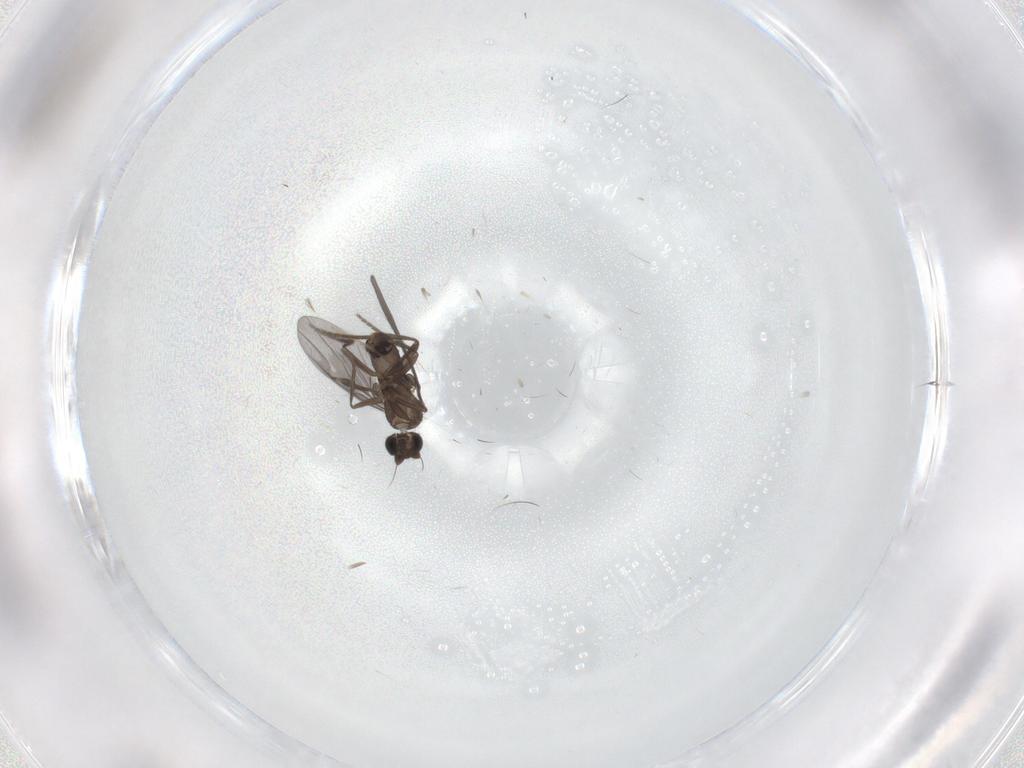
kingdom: Animalia
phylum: Arthropoda
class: Insecta
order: Diptera
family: Phoridae
